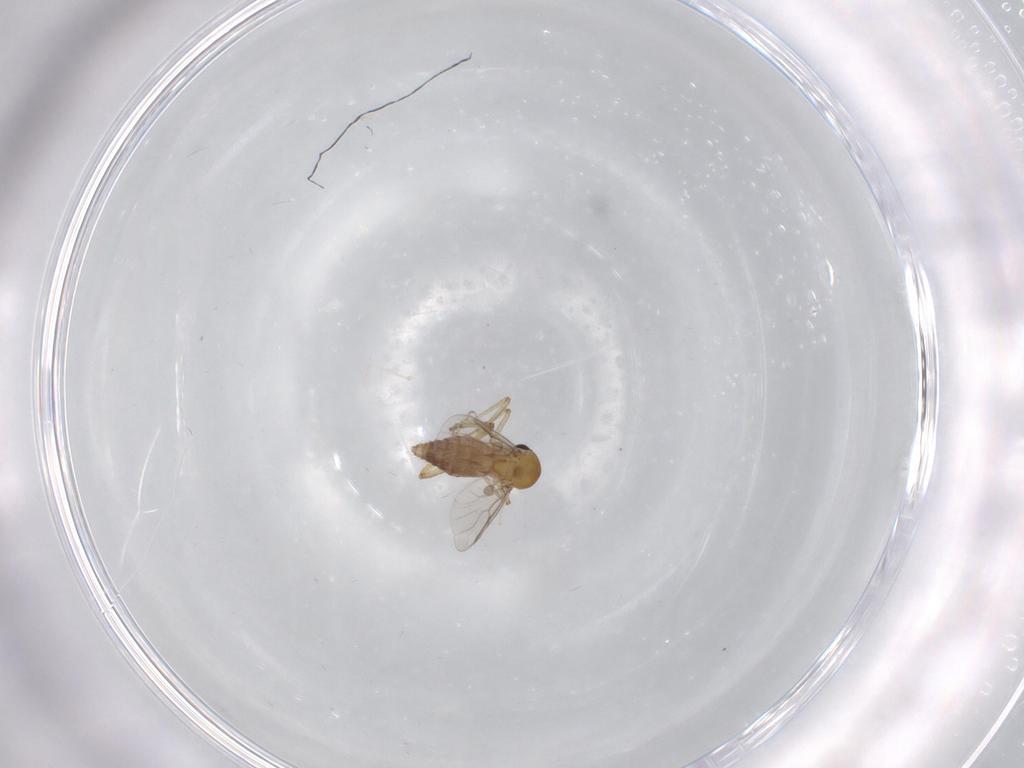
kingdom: Animalia
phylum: Arthropoda
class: Insecta
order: Diptera
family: Ceratopogonidae
